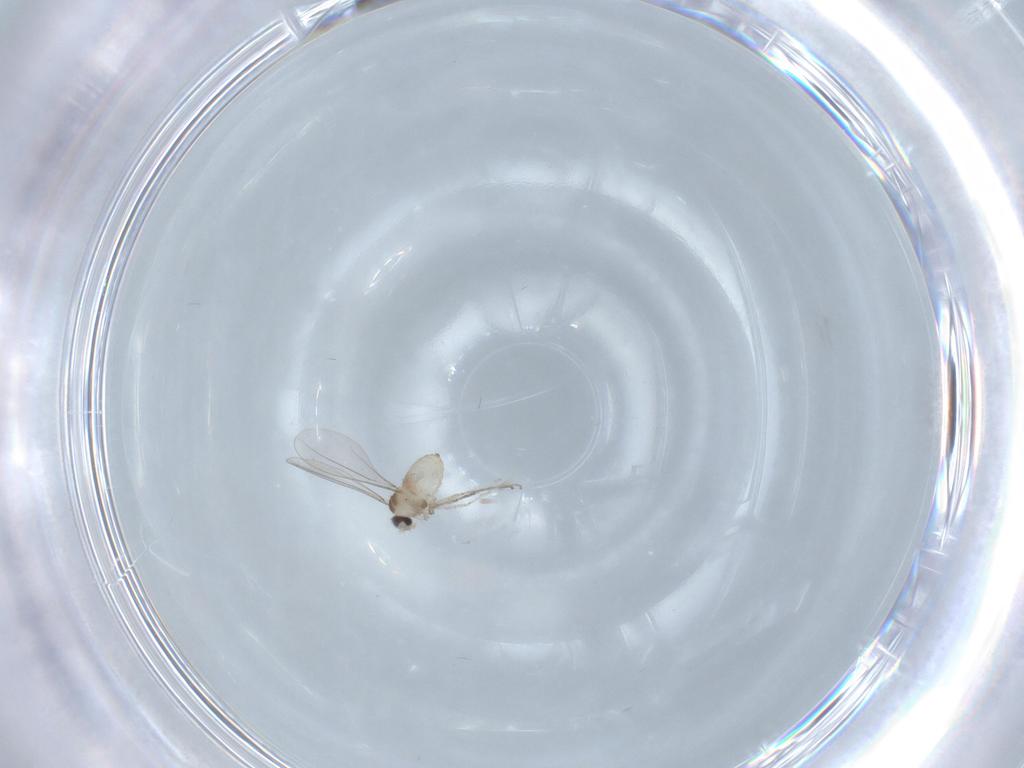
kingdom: Animalia
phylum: Arthropoda
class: Insecta
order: Diptera
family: Cecidomyiidae
